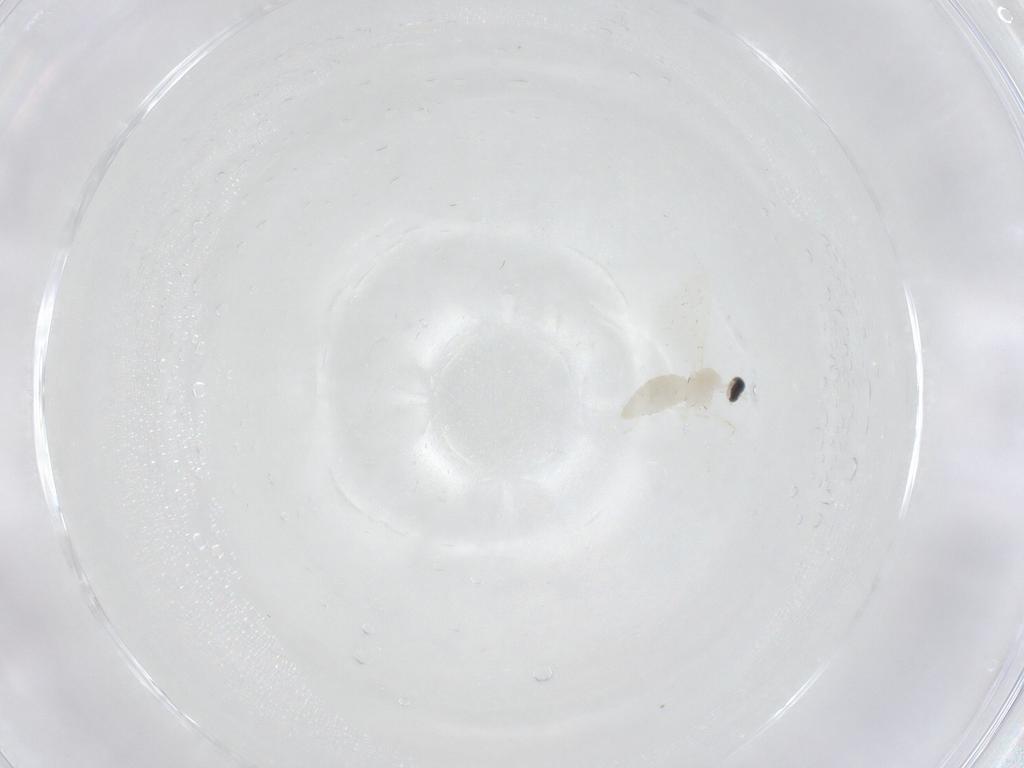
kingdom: Animalia
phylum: Arthropoda
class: Insecta
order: Diptera
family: Cecidomyiidae
